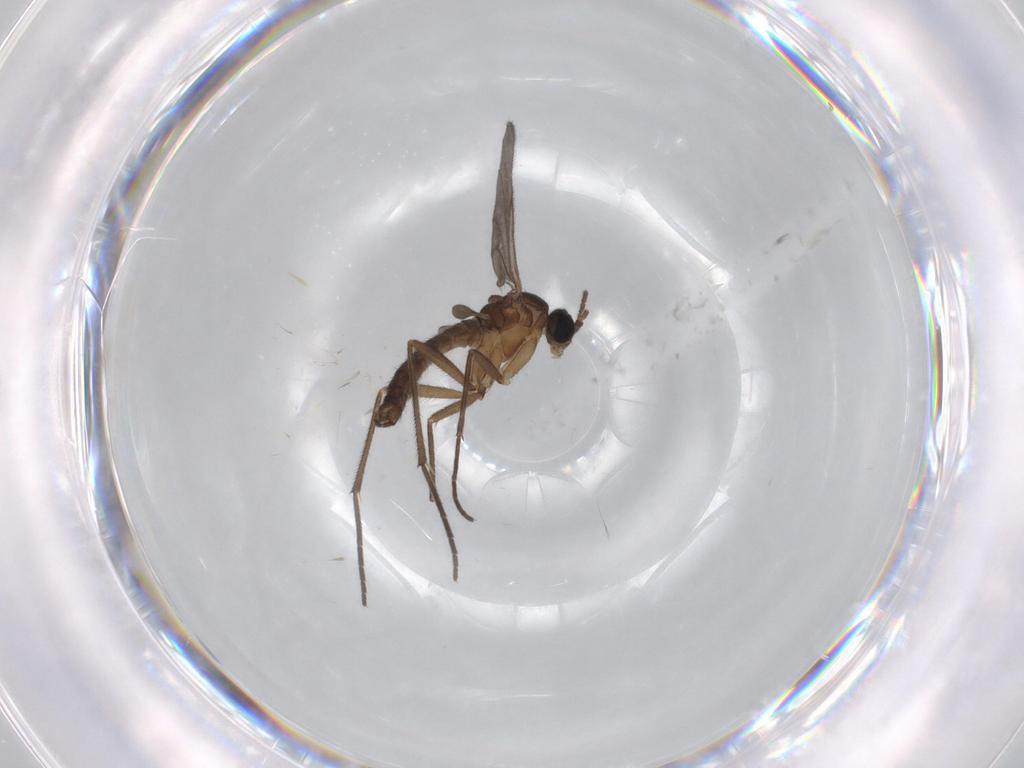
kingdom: Animalia
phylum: Arthropoda
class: Insecta
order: Diptera
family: Sciaridae
